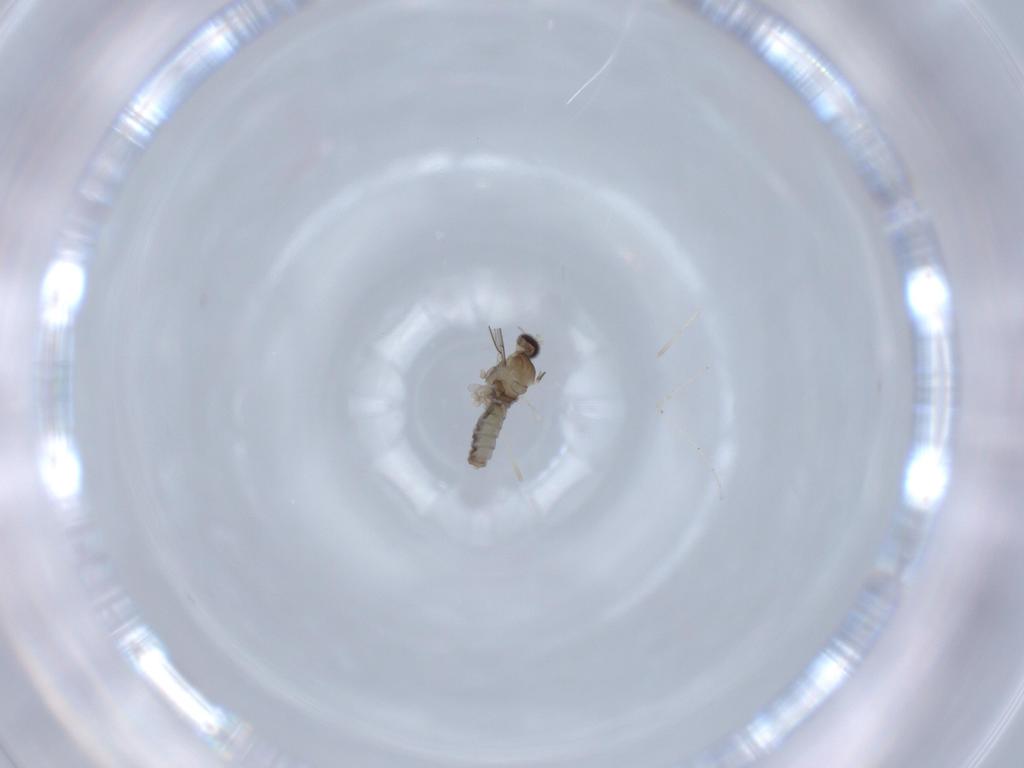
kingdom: Animalia
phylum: Arthropoda
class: Insecta
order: Diptera
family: Cecidomyiidae
